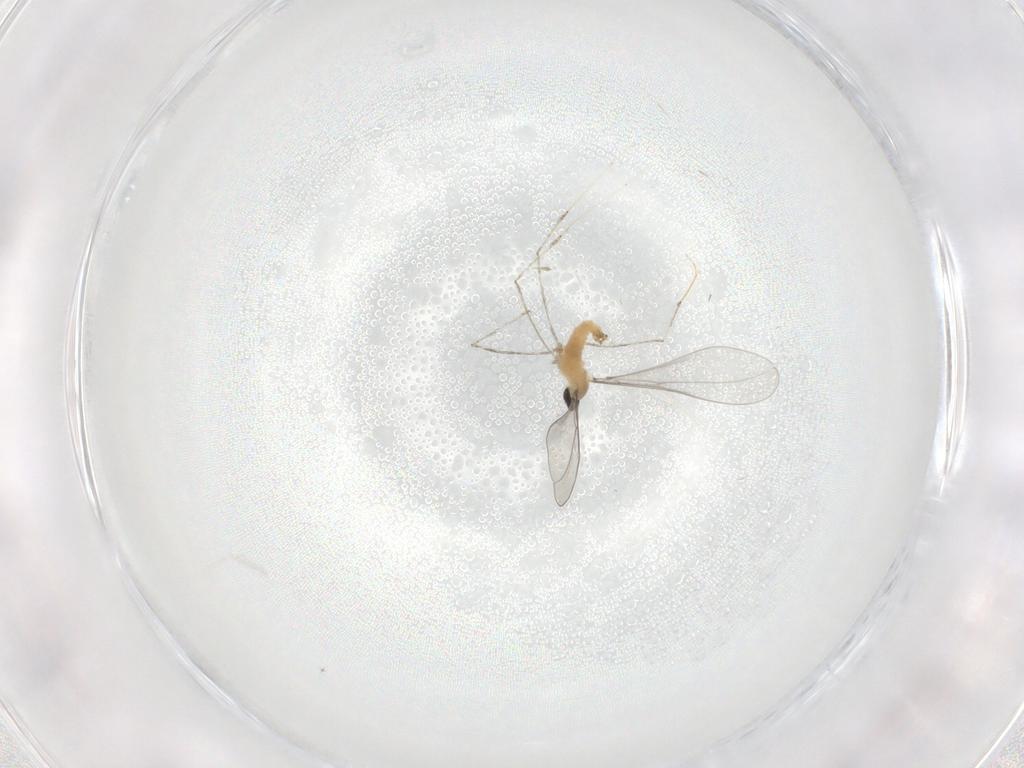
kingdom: Animalia
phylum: Arthropoda
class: Insecta
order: Diptera
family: Cecidomyiidae
